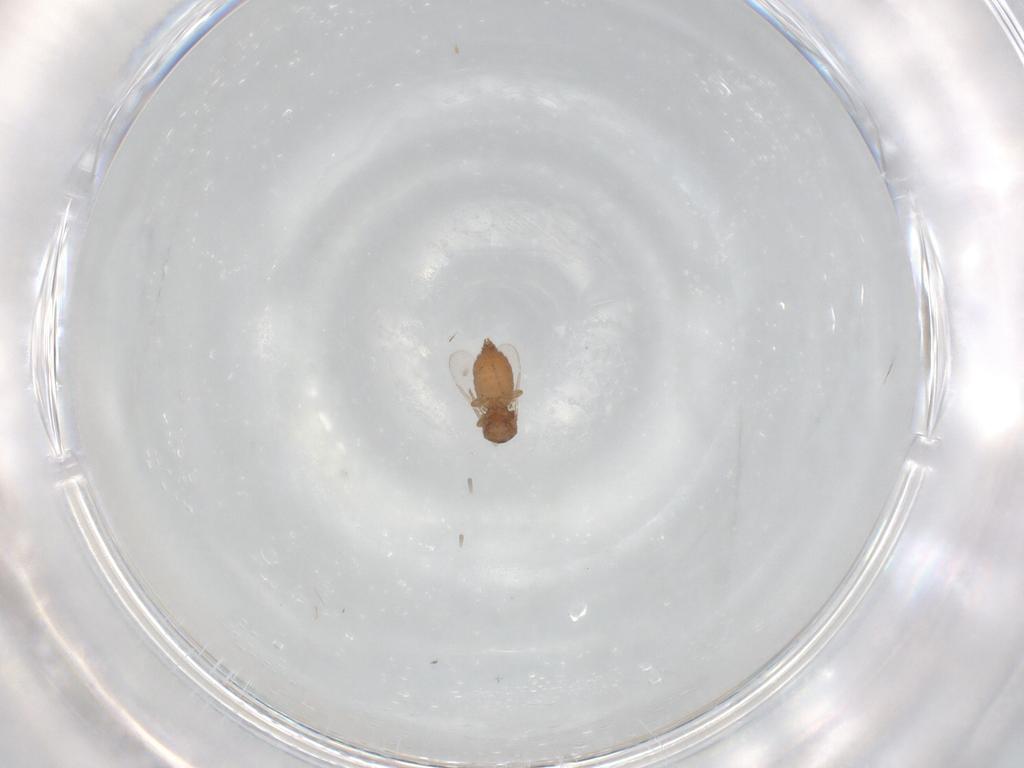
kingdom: Animalia
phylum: Arthropoda
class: Insecta
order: Diptera
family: Ceratopogonidae
